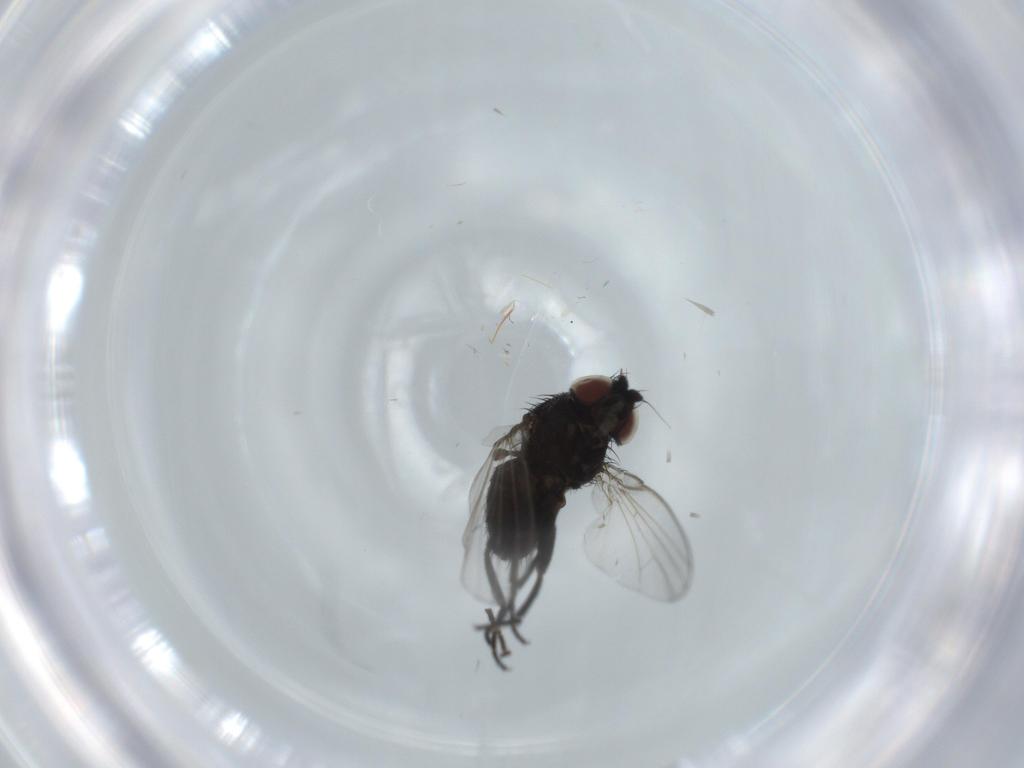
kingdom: Animalia
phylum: Arthropoda
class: Insecta
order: Diptera
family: Milichiidae
